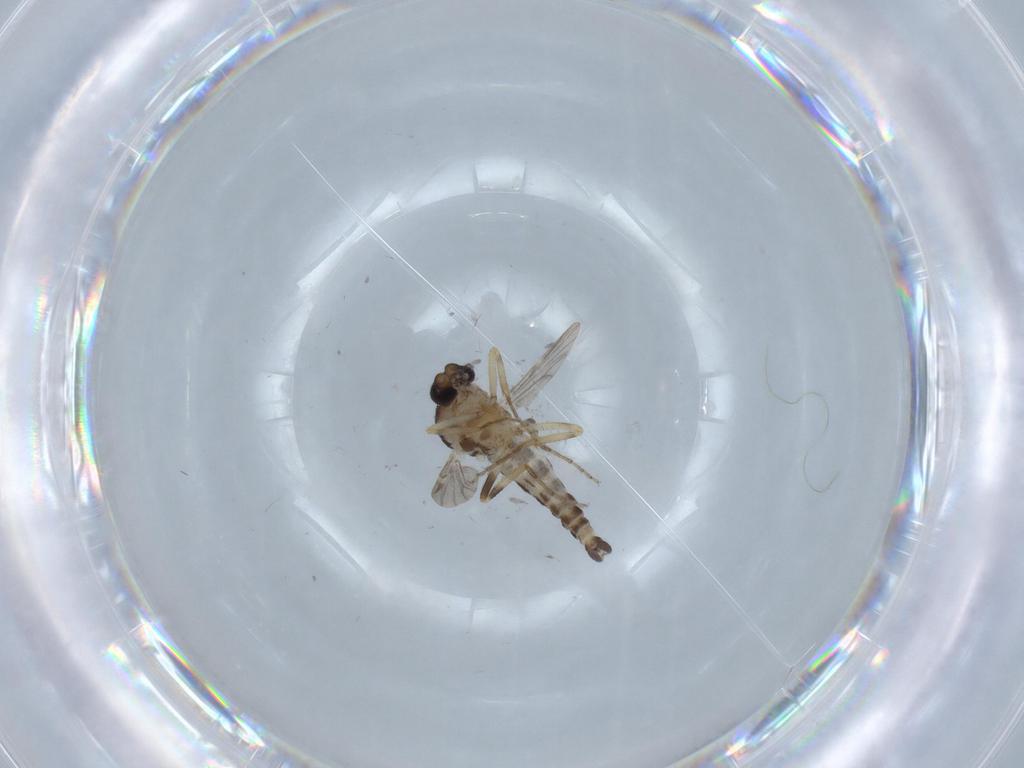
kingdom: Animalia
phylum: Arthropoda
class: Insecta
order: Diptera
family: Ceratopogonidae
